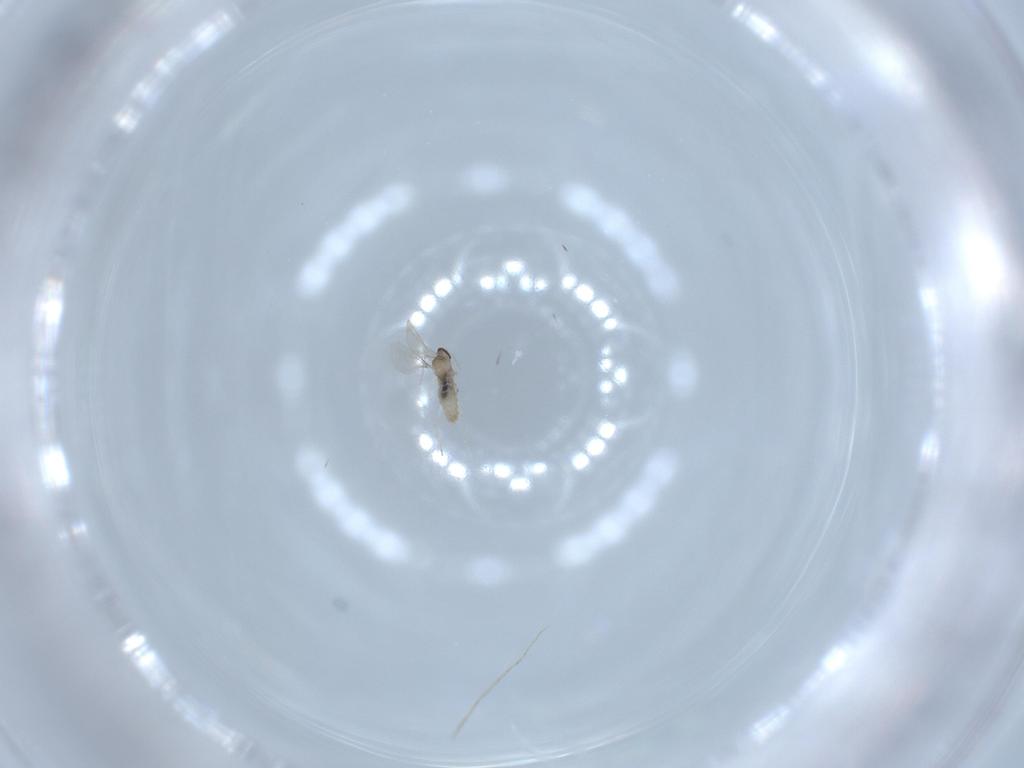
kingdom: Animalia
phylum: Arthropoda
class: Insecta
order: Diptera
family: Cecidomyiidae
